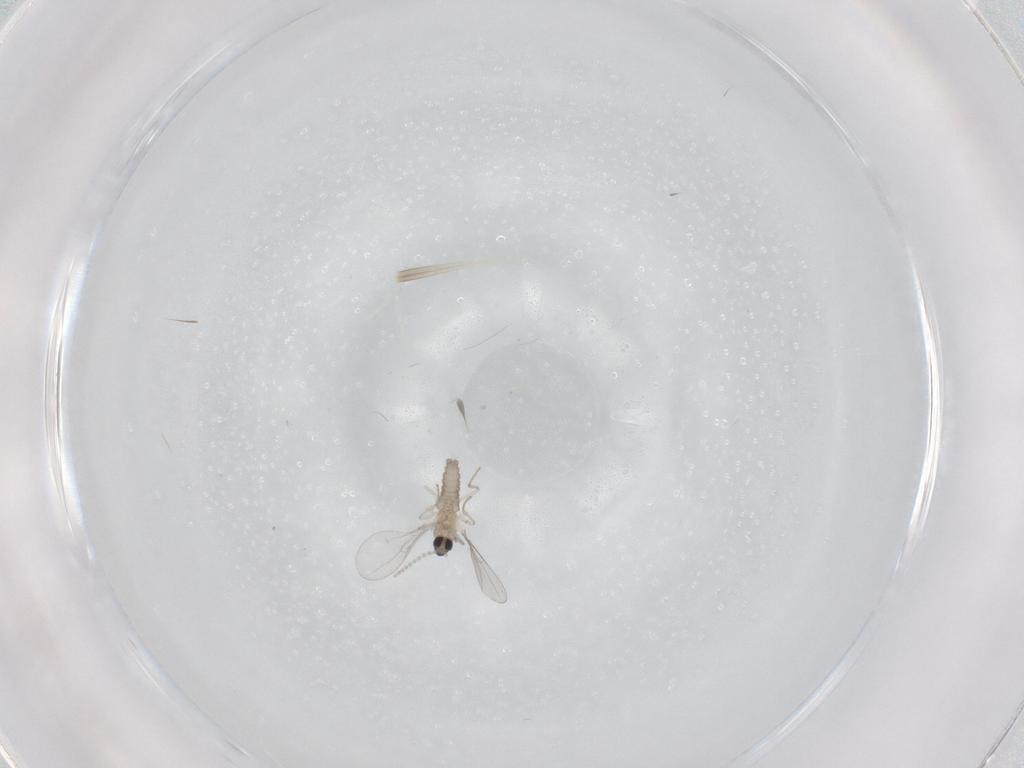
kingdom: Animalia
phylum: Arthropoda
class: Insecta
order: Diptera
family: Cecidomyiidae
